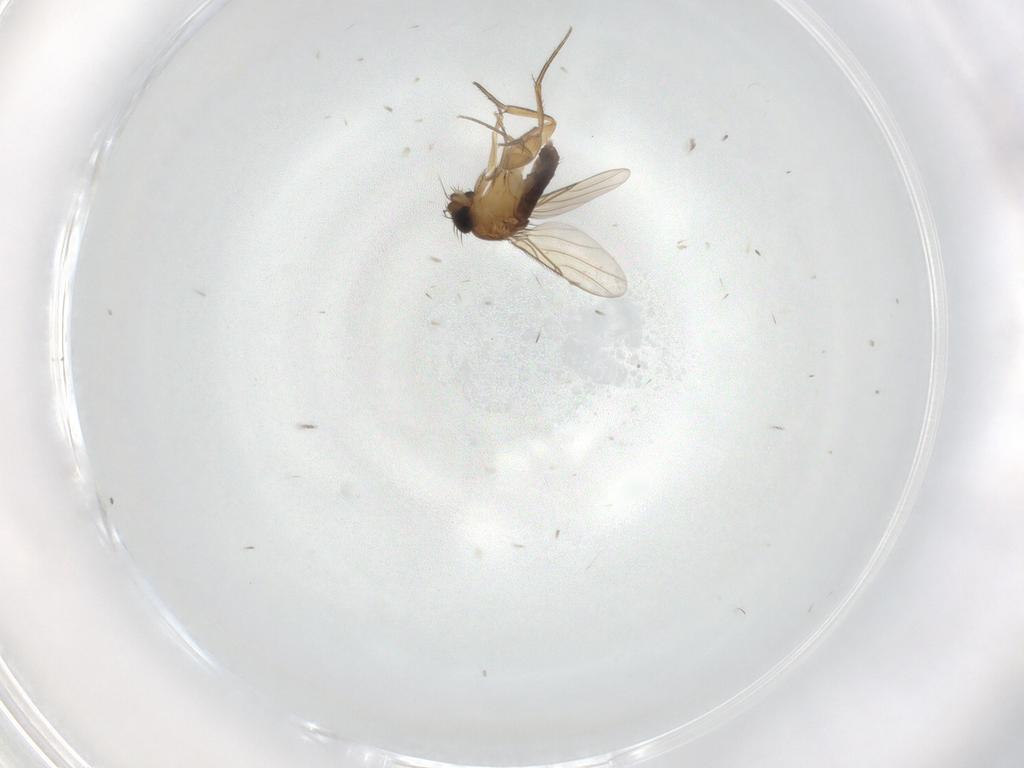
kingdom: Animalia
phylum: Arthropoda
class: Insecta
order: Diptera
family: Phoridae
